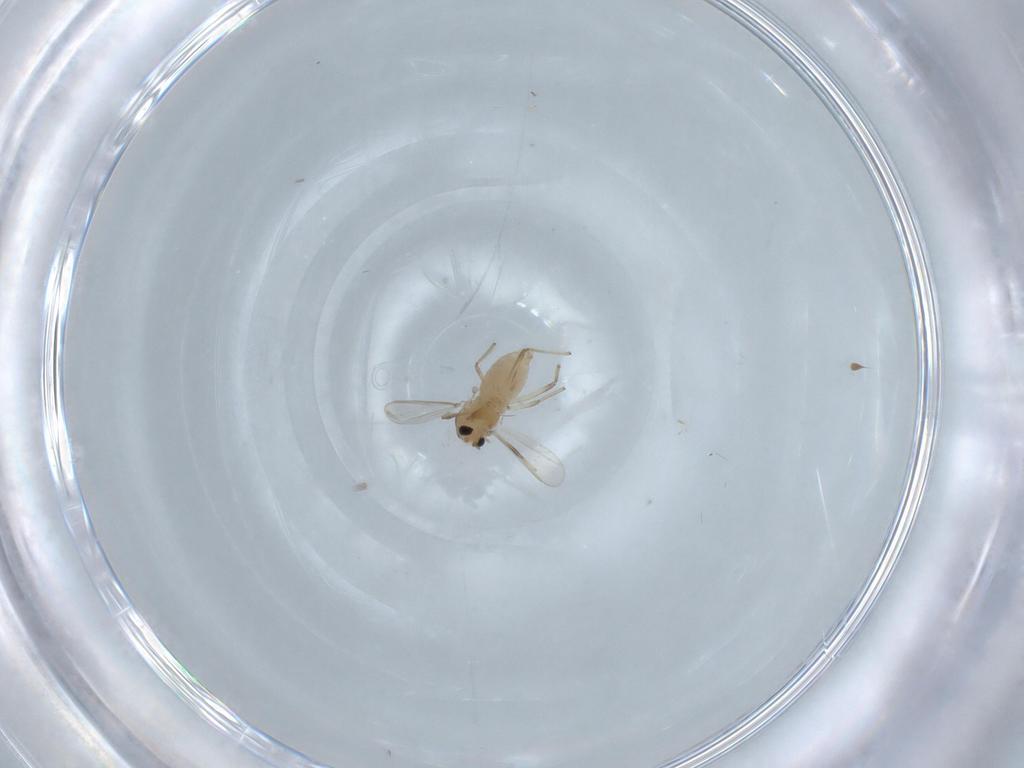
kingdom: Animalia
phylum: Arthropoda
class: Insecta
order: Diptera
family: Chironomidae
